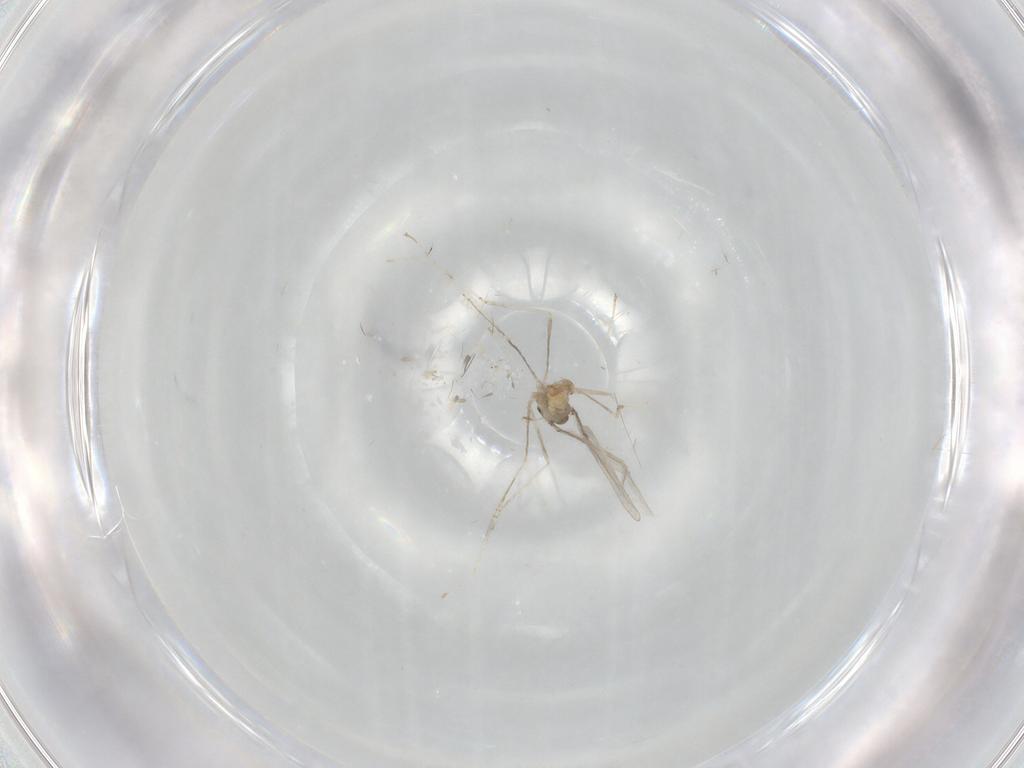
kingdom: Animalia
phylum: Arthropoda
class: Insecta
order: Diptera
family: Cecidomyiidae
